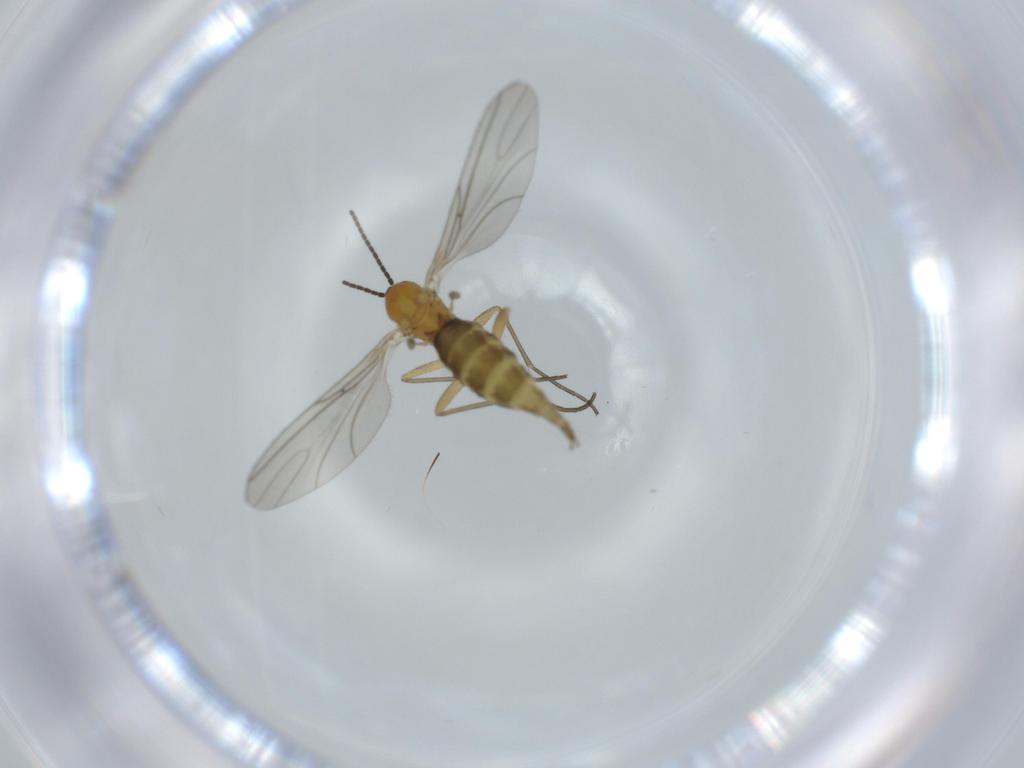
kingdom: Animalia
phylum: Arthropoda
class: Insecta
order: Diptera
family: Sciaridae
